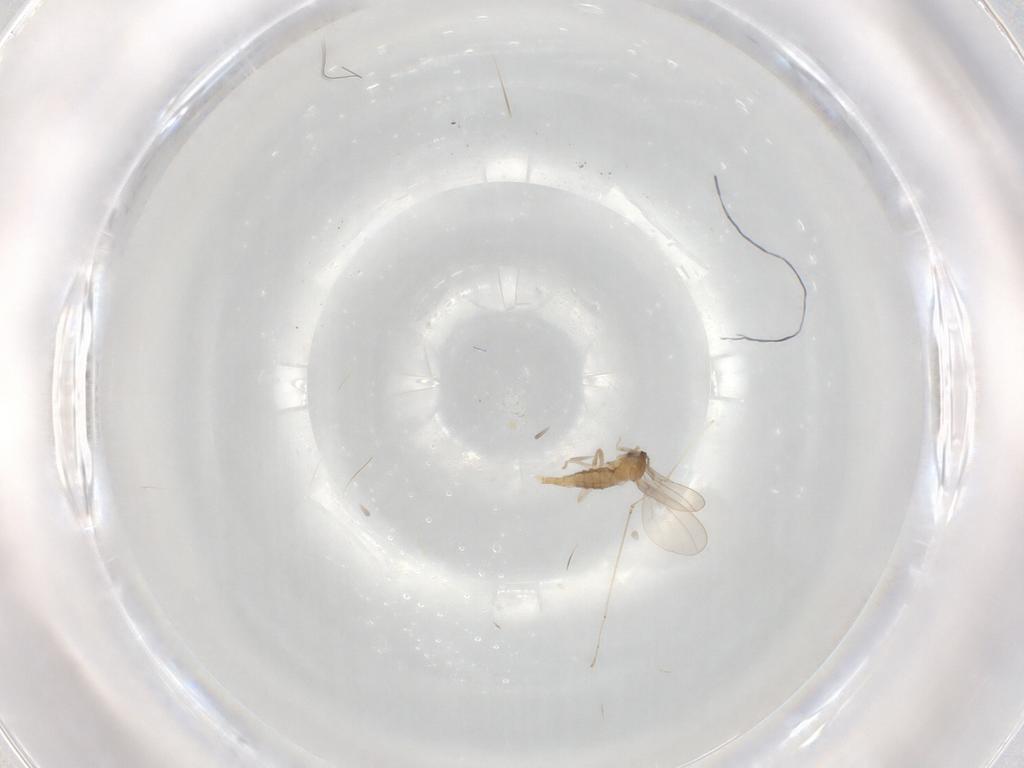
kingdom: Animalia
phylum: Arthropoda
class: Insecta
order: Diptera
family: Cecidomyiidae
